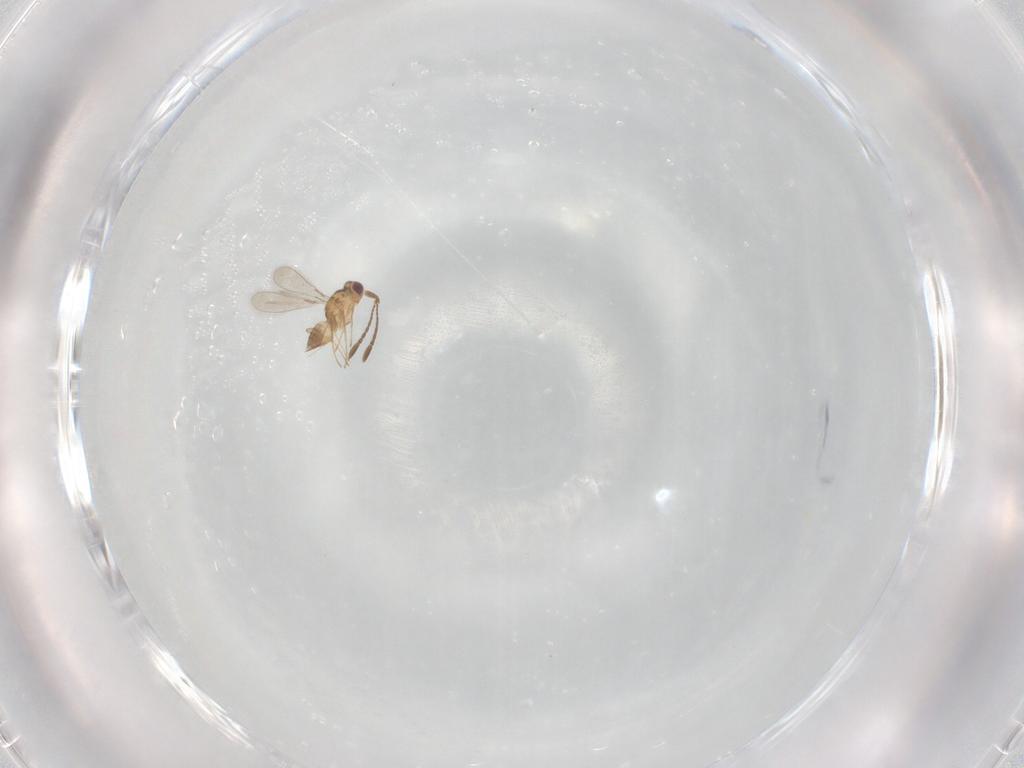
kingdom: Animalia
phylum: Arthropoda
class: Insecta
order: Hymenoptera
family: Mymaridae
